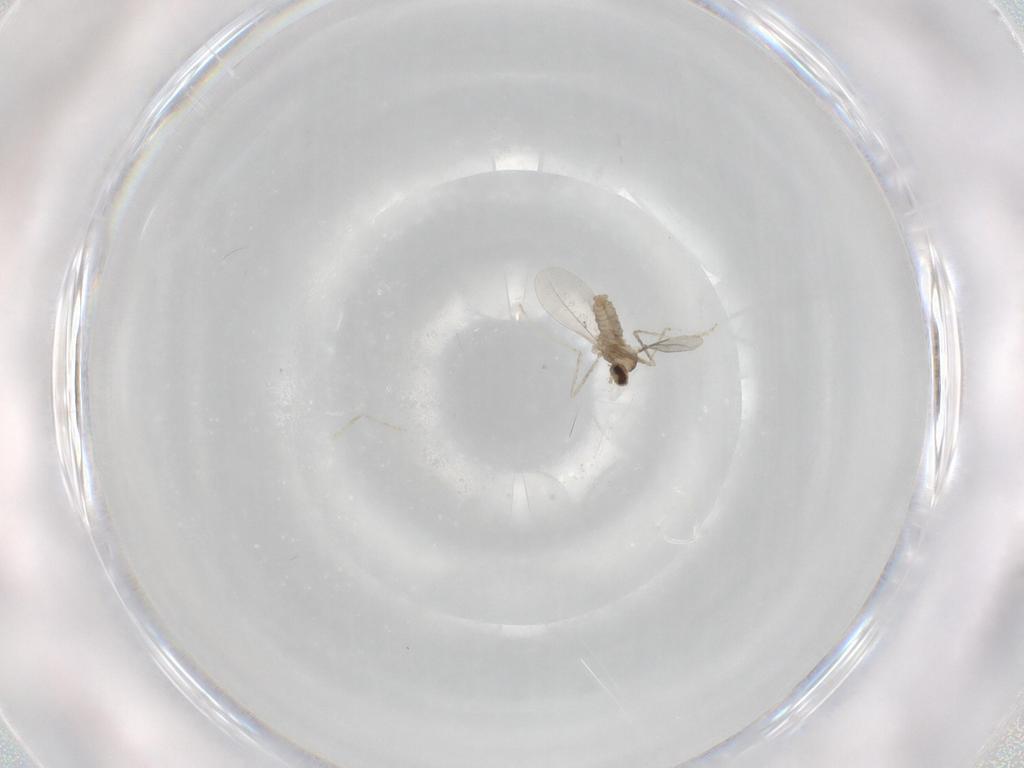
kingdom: Animalia
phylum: Arthropoda
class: Insecta
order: Diptera
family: Cecidomyiidae
